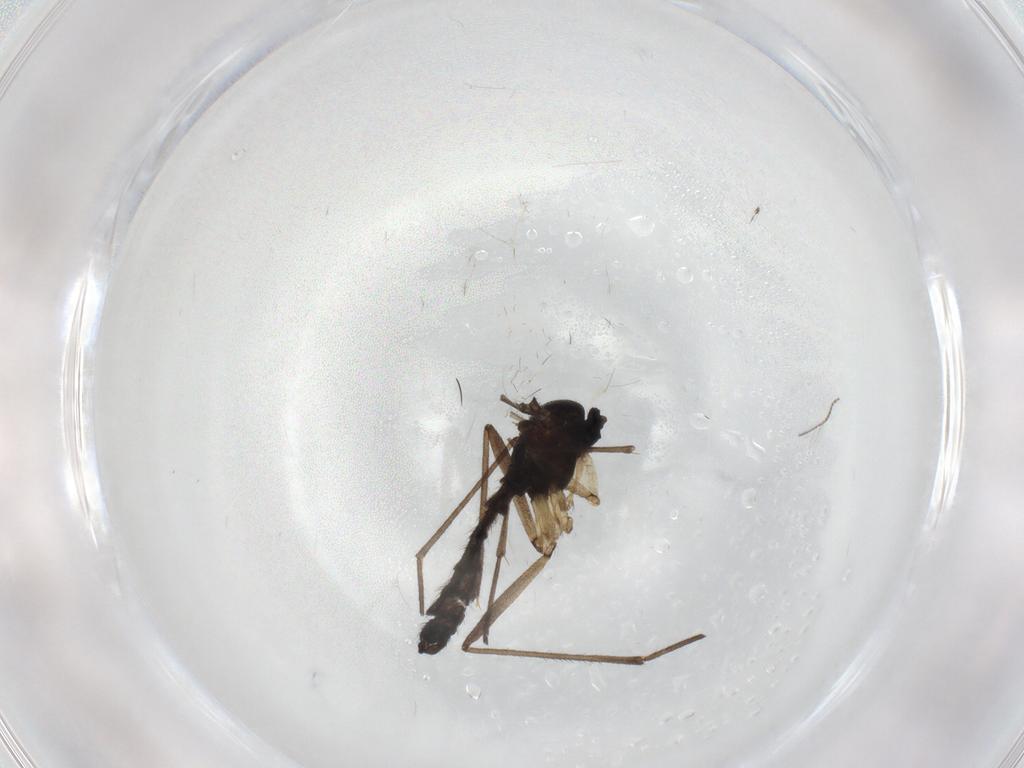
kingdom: Animalia
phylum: Arthropoda
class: Insecta
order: Diptera
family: Sciaridae
